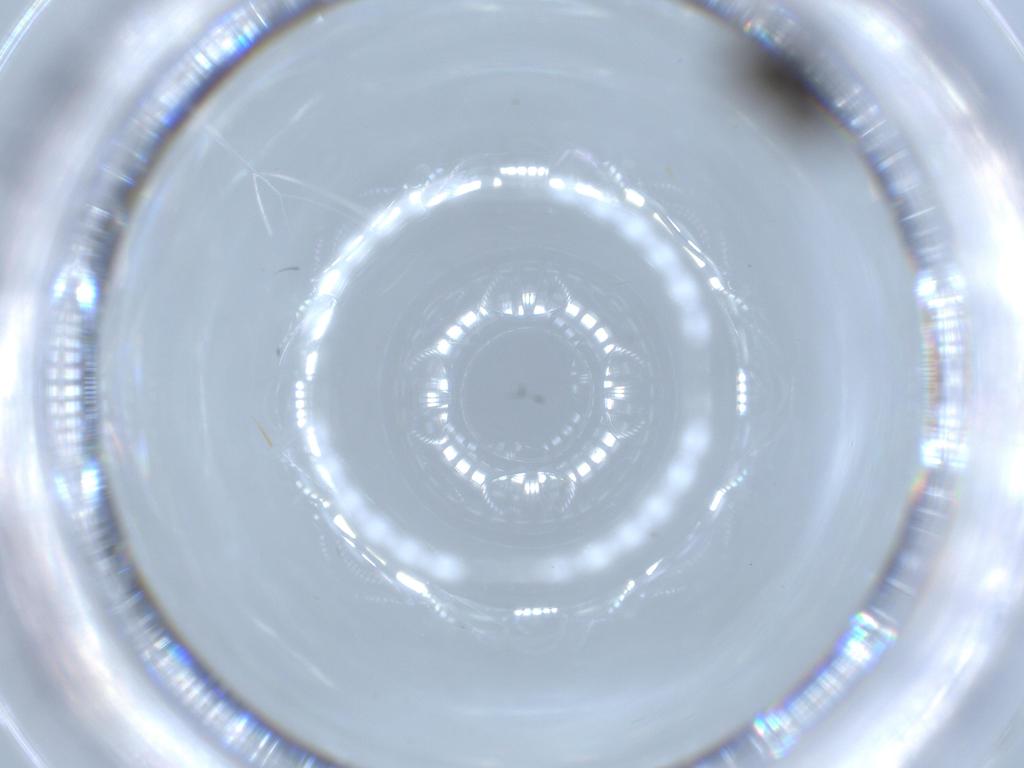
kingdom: Animalia
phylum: Arthropoda
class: Insecta
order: Diptera
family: Sphaeroceridae
